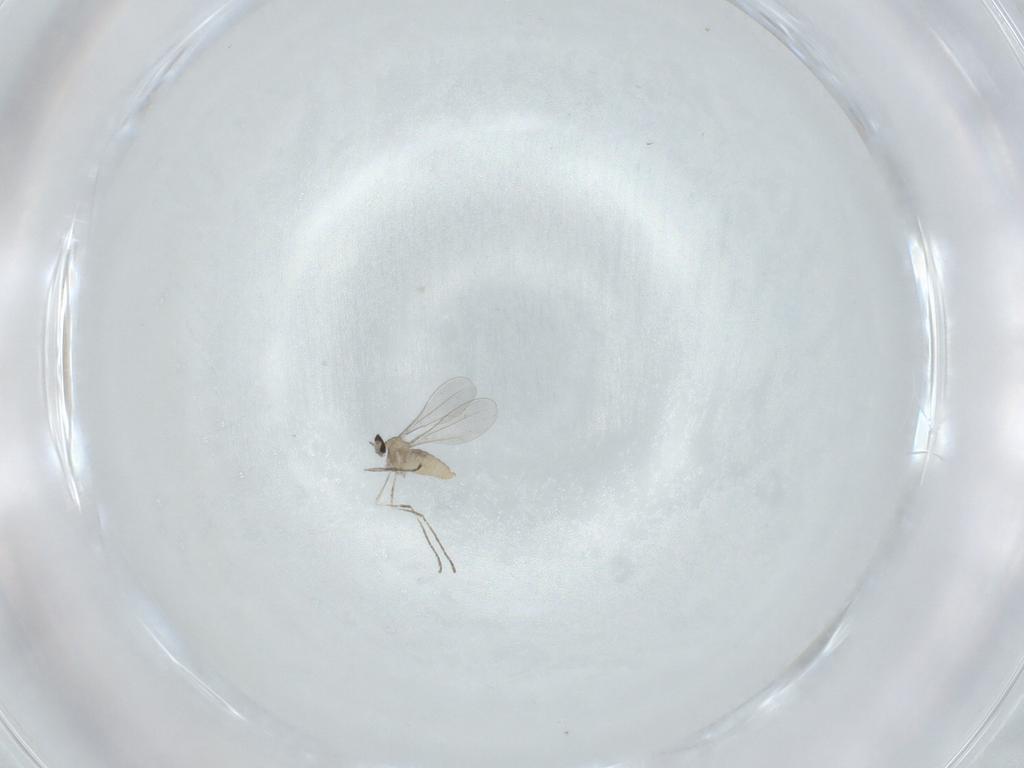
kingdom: Animalia
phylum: Arthropoda
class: Insecta
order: Diptera
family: Cecidomyiidae
